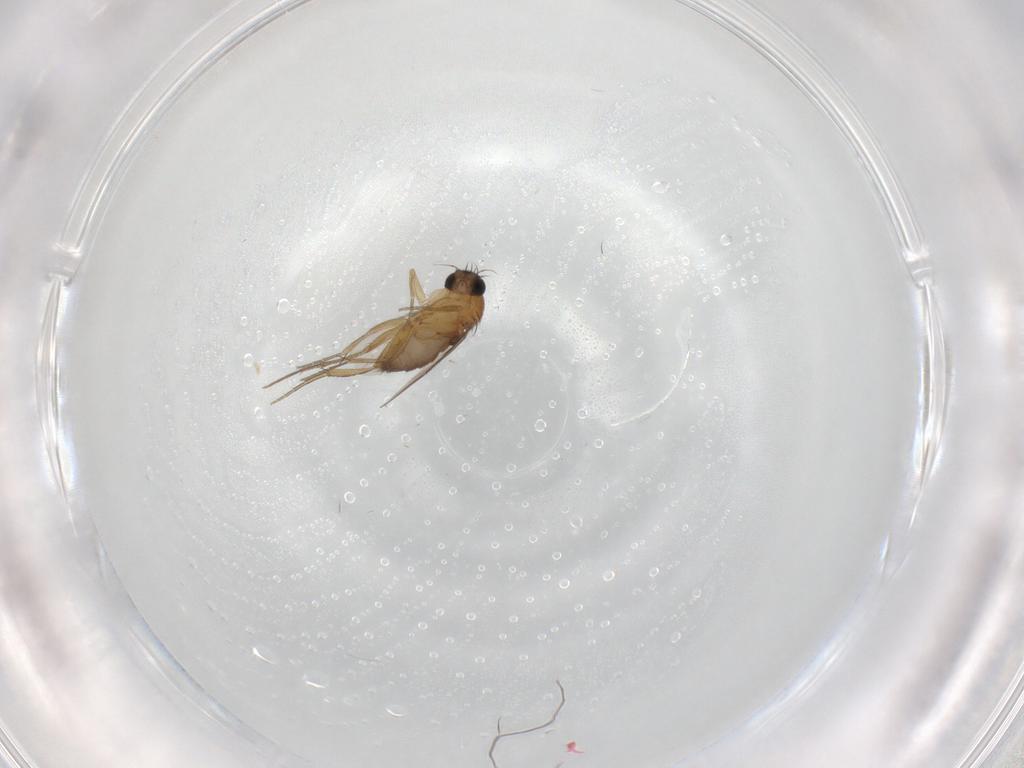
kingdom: Animalia
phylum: Arthropoda
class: Insecta
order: Diptera
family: Phoridae
